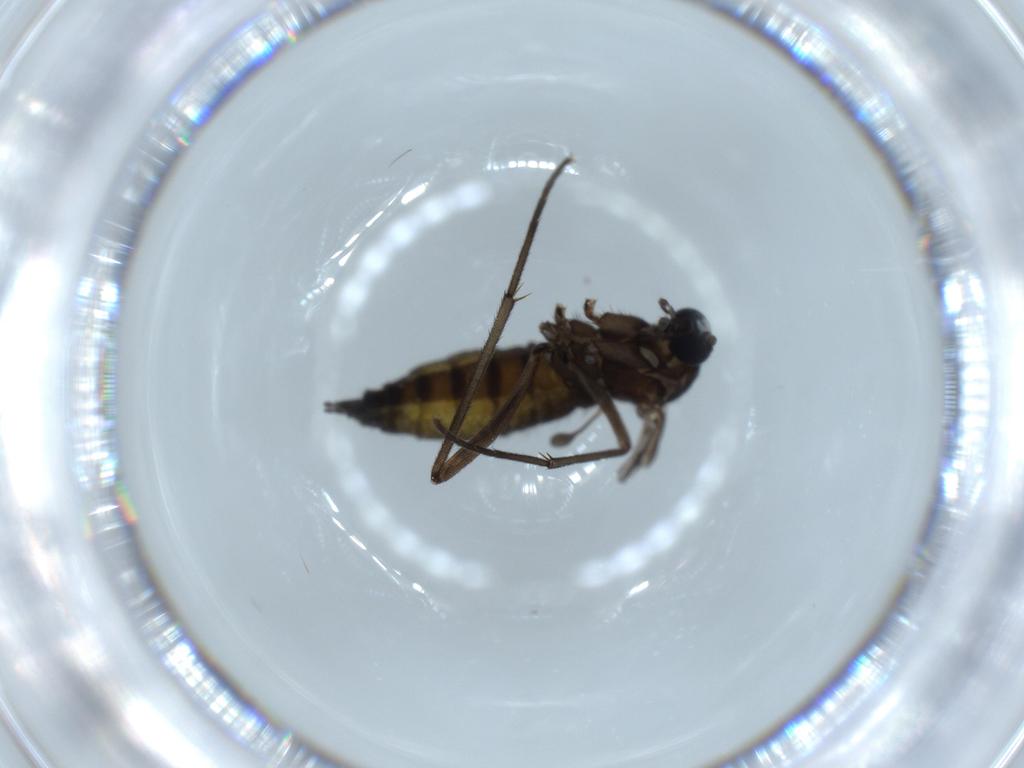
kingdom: Animalia
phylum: Arthropoda
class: Insecta
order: Diptera
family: Sciaridae
